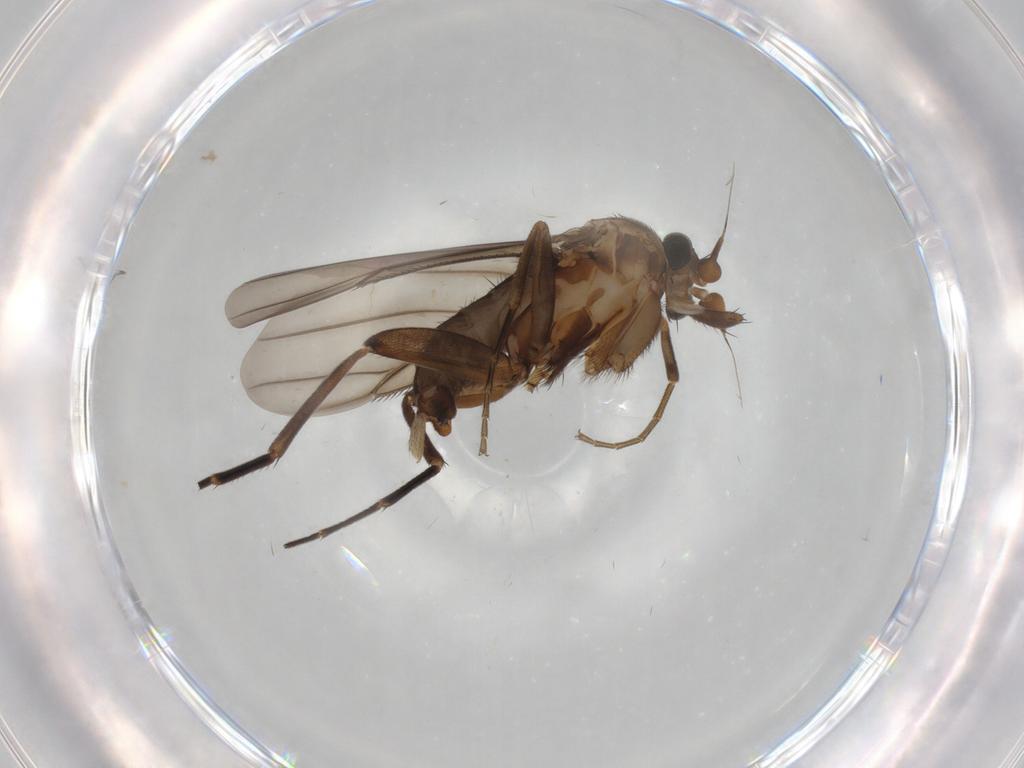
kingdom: Animalia
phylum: Arthropoda
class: Insecta
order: Diptera
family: Phoridae
